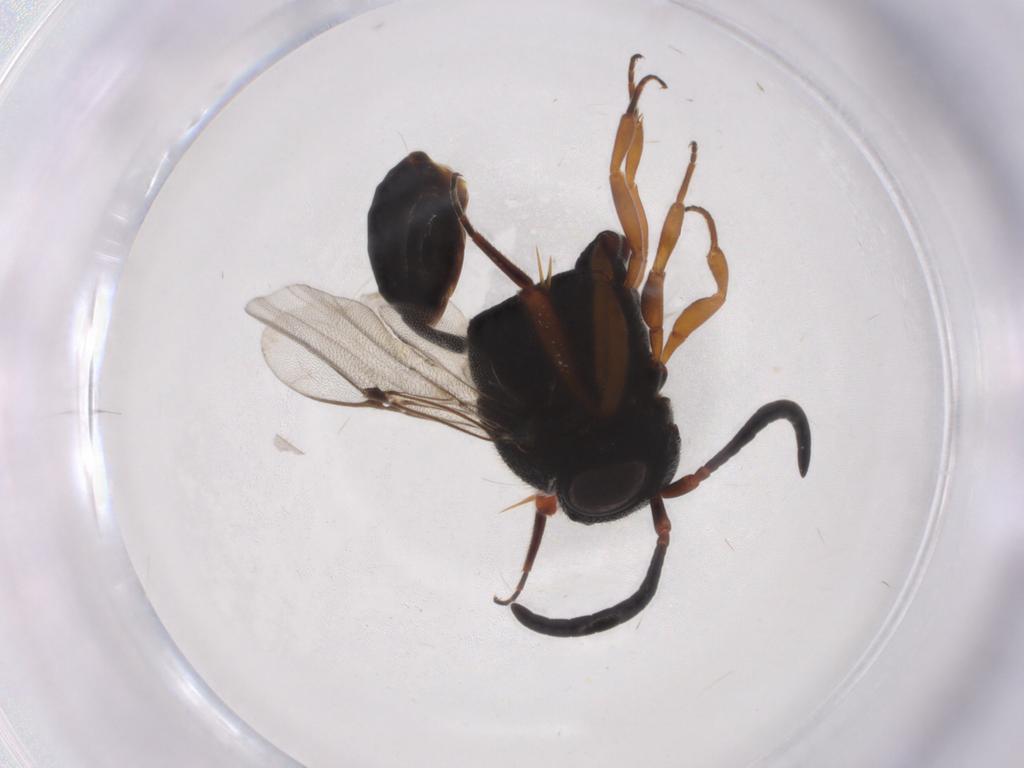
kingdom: Animalia
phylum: Arthropoda
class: Insecta
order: Hymenoptera
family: Evaniidae
